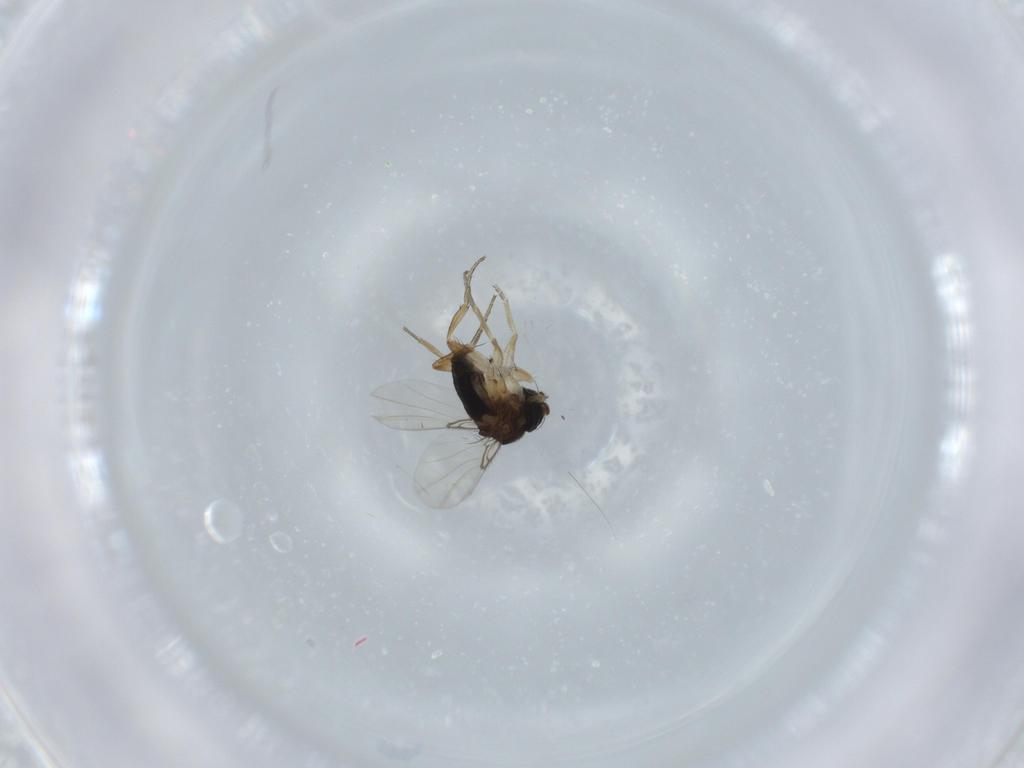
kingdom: Animalia
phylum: Arthropoda
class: Insecta
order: Diptera
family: Phoridae
